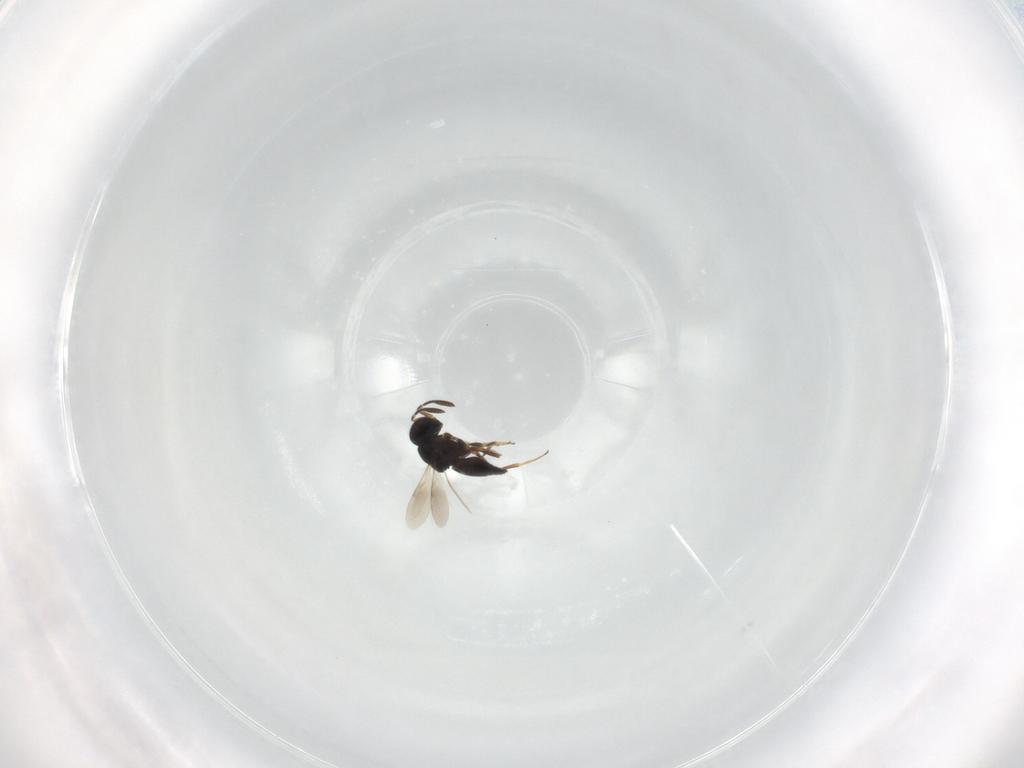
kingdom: Animalia
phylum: Arthropoda
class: Insecta
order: Hymenoptera
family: Scelionidae
